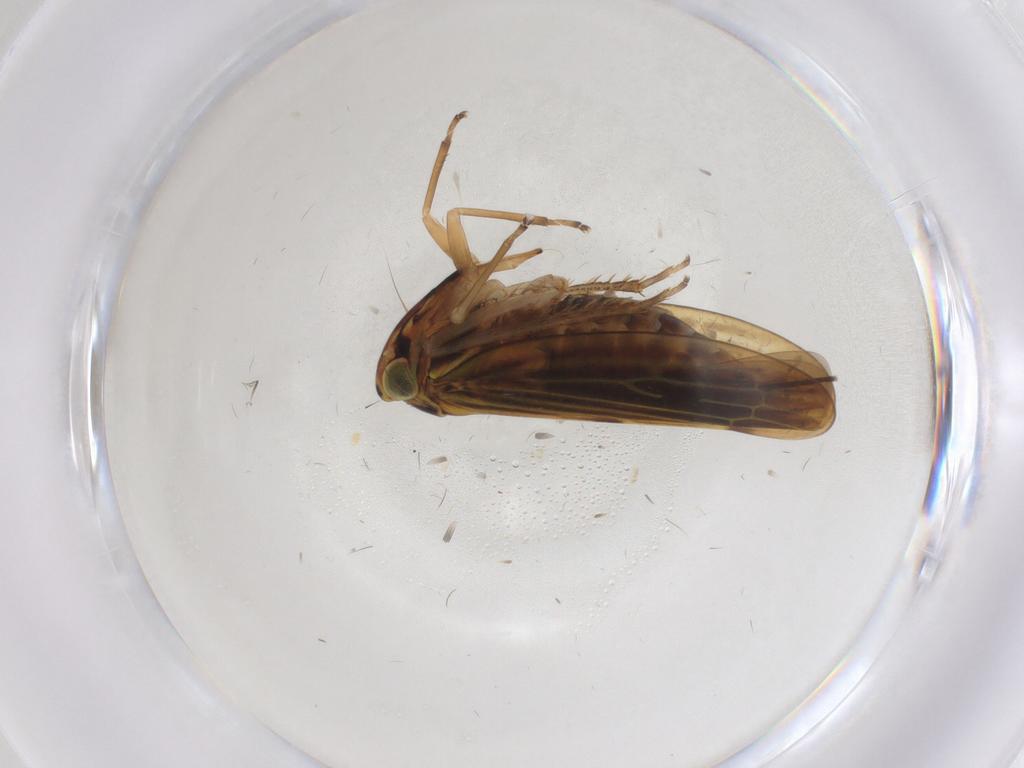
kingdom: Animalia
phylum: Arthropoda
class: Insecta
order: Hemiptera
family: Cicadellidae
